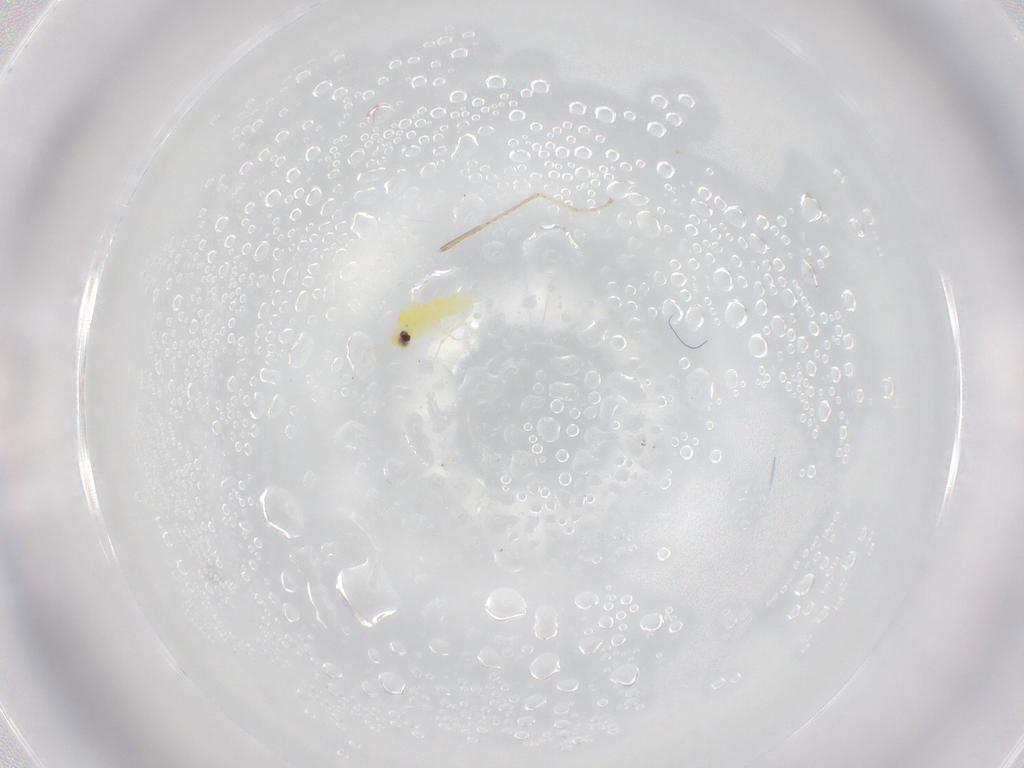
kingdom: Animalia
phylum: Arthropoda
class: Insecta
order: Hemiptera
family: Aleyrodidae
